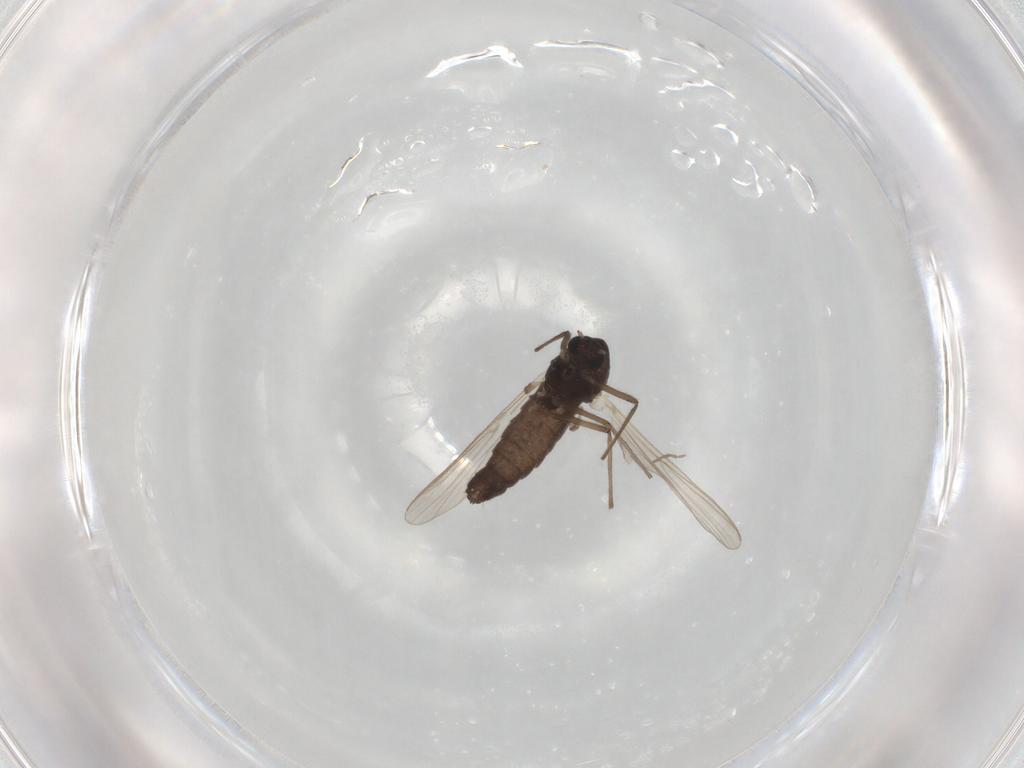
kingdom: Animalia
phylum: Arthropoda
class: Insecta
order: Diptera
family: Chironomidae
